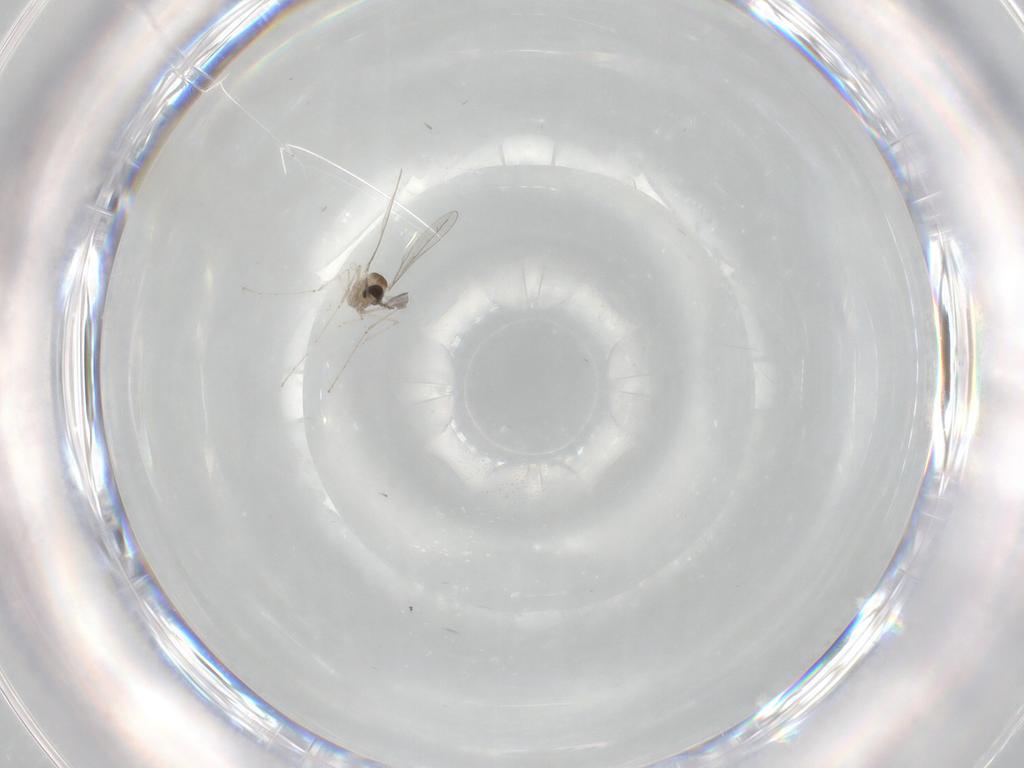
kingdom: Animalia
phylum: Arthropoda
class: Insecta
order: Diptera
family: Cecidomyiidae
